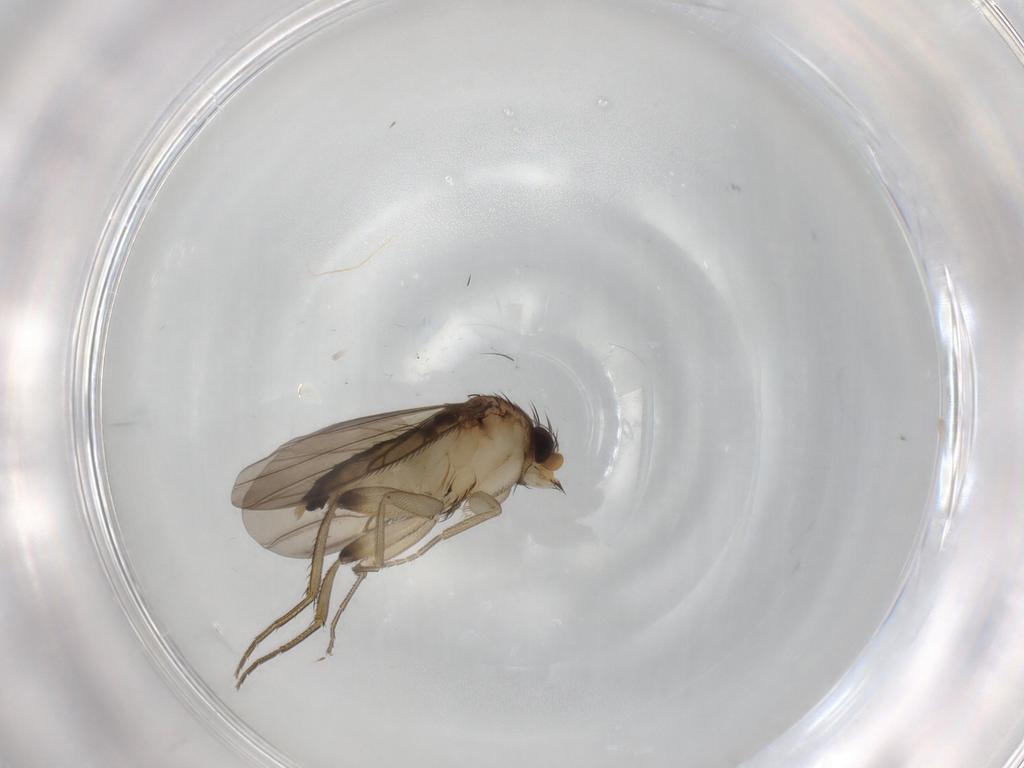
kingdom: Animalia
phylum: Arthropoda
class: Insecta
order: Diptera
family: Phoridae
